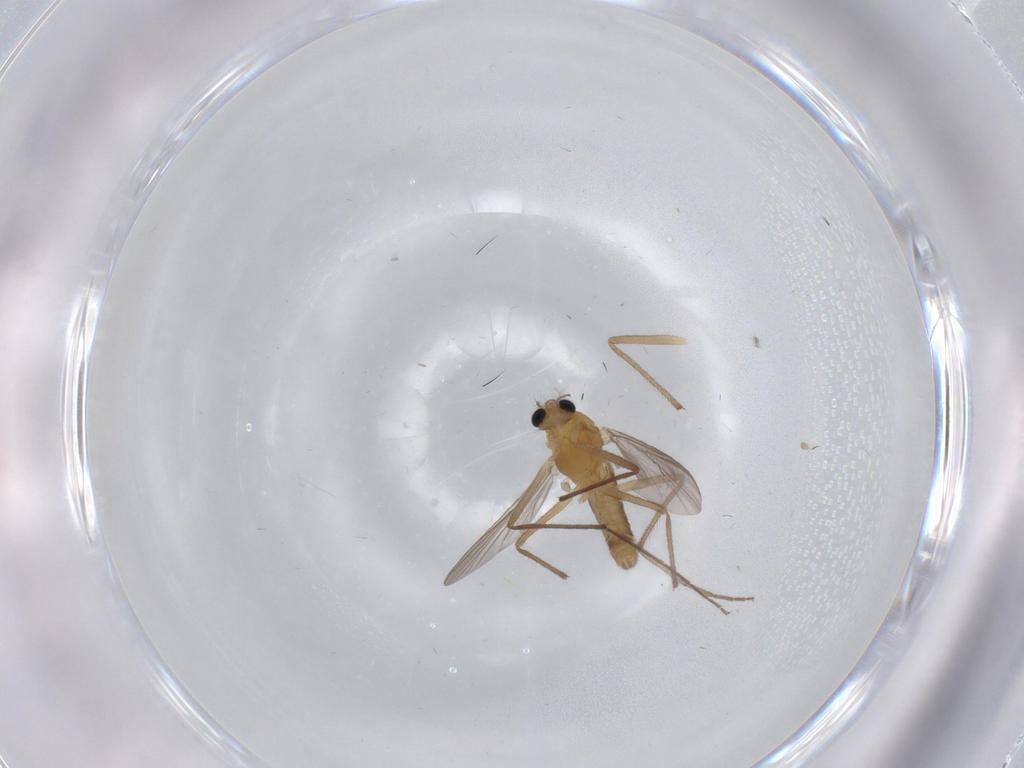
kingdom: Animalia
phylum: Arthropoda
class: Insecta
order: Diptera
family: Chironomidae
